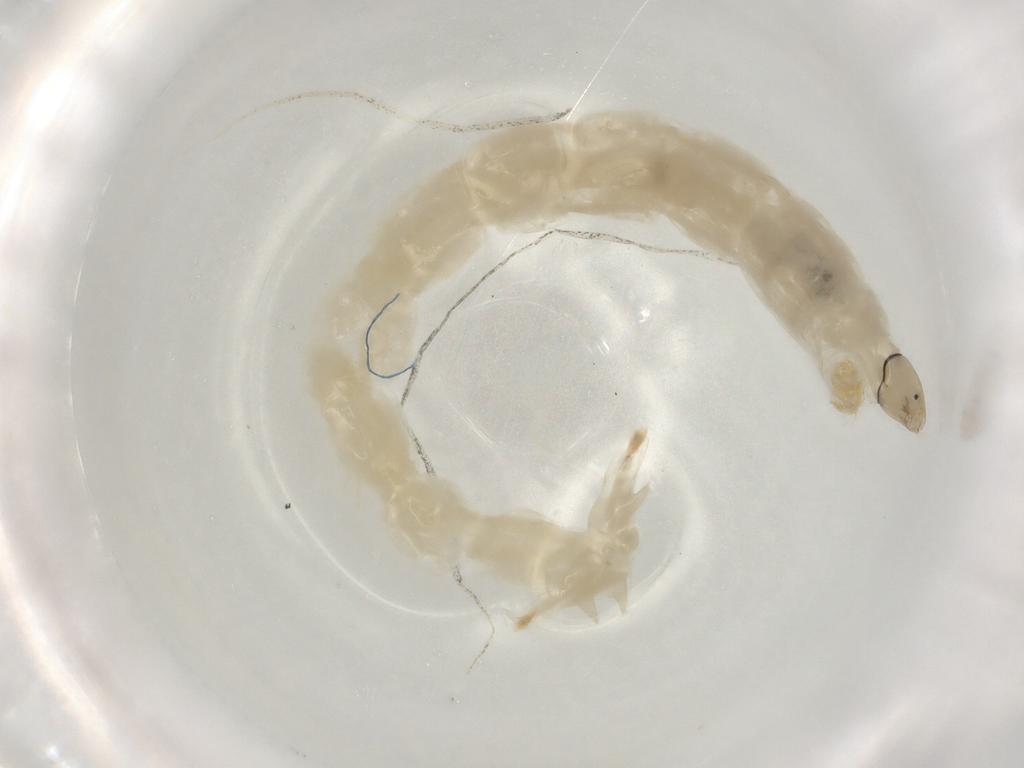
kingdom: Animalia
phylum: Arthropoda
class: Insecta
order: Diptera
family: Chironomidae
